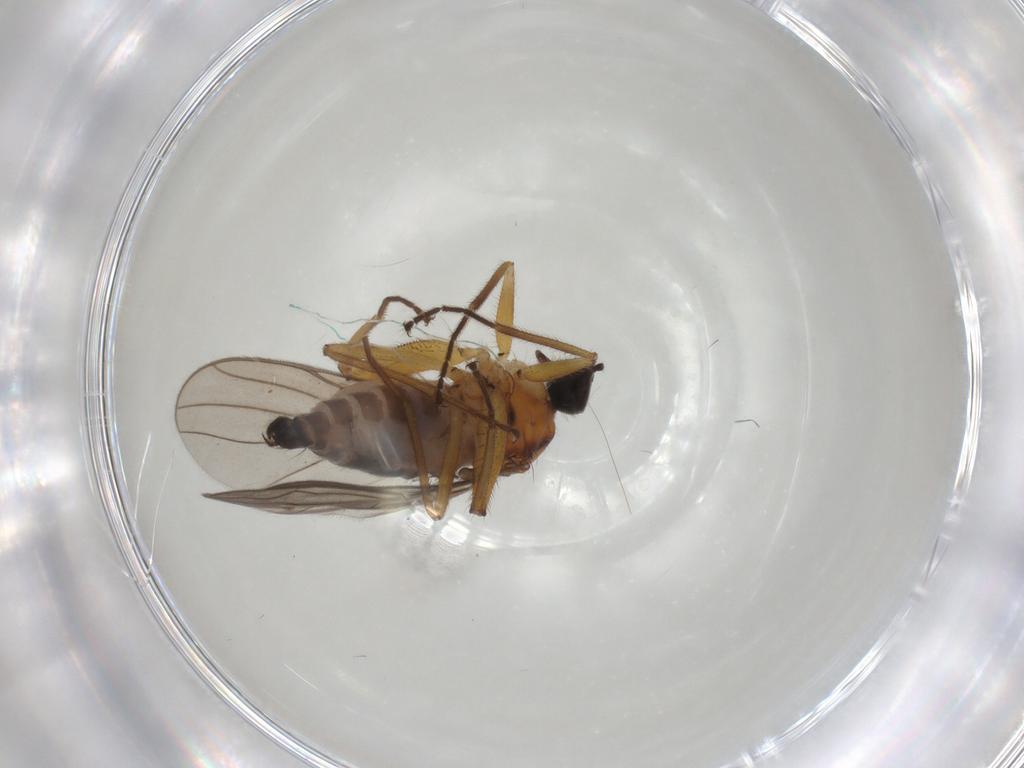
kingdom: Animalia
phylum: Arthropoda
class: Insecta
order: Diptera
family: Hybotidae
